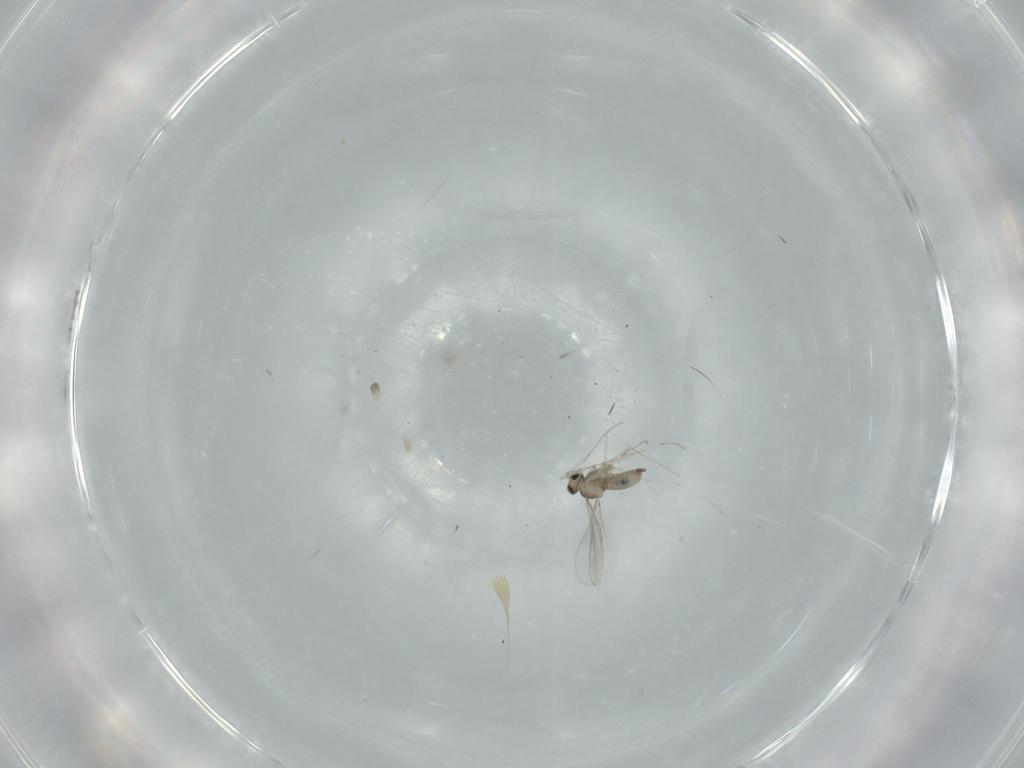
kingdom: Animalia
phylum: Arthropoda
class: Insecta
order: Diptera
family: Cecidomyiidae
